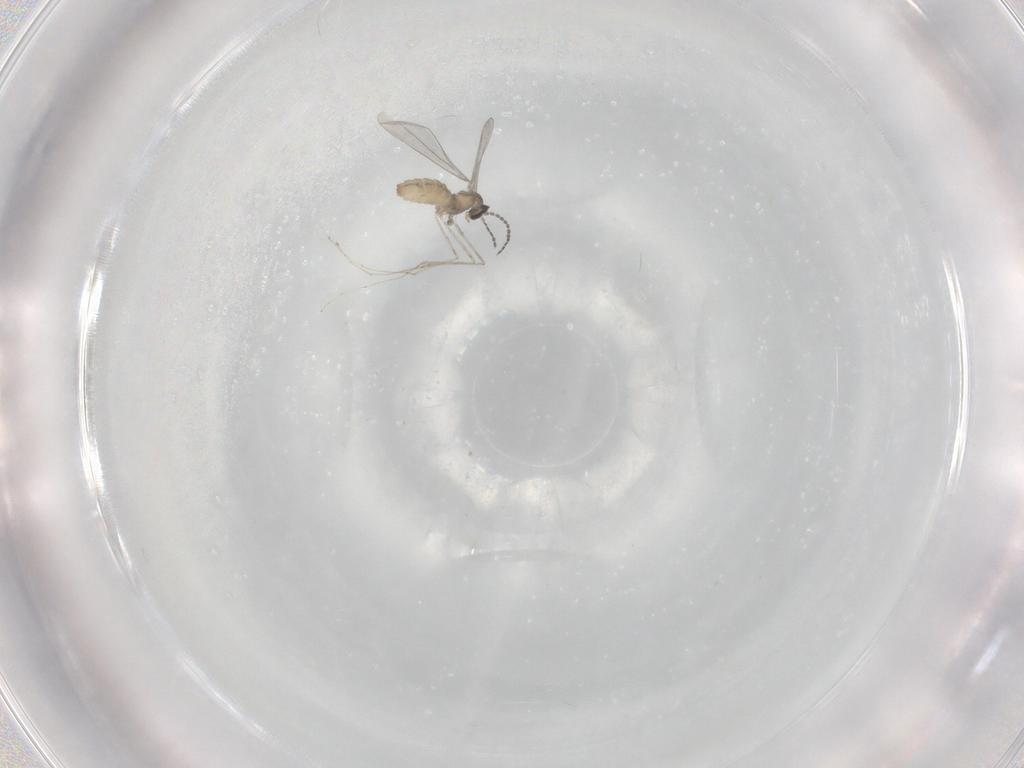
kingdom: Animalia
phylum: Arthropoda
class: Insecta
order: Diptera
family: Cecidomyiidae
